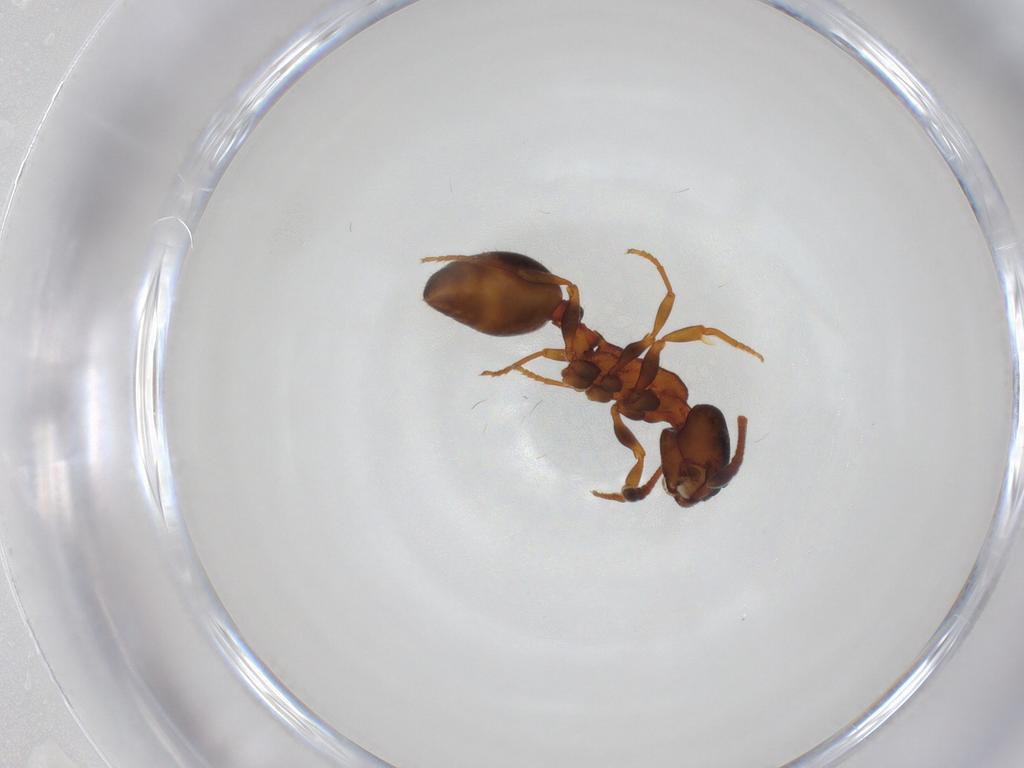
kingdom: Animalia
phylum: Arthropoda
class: Insecta
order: Hymenoptera
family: Formicidae
